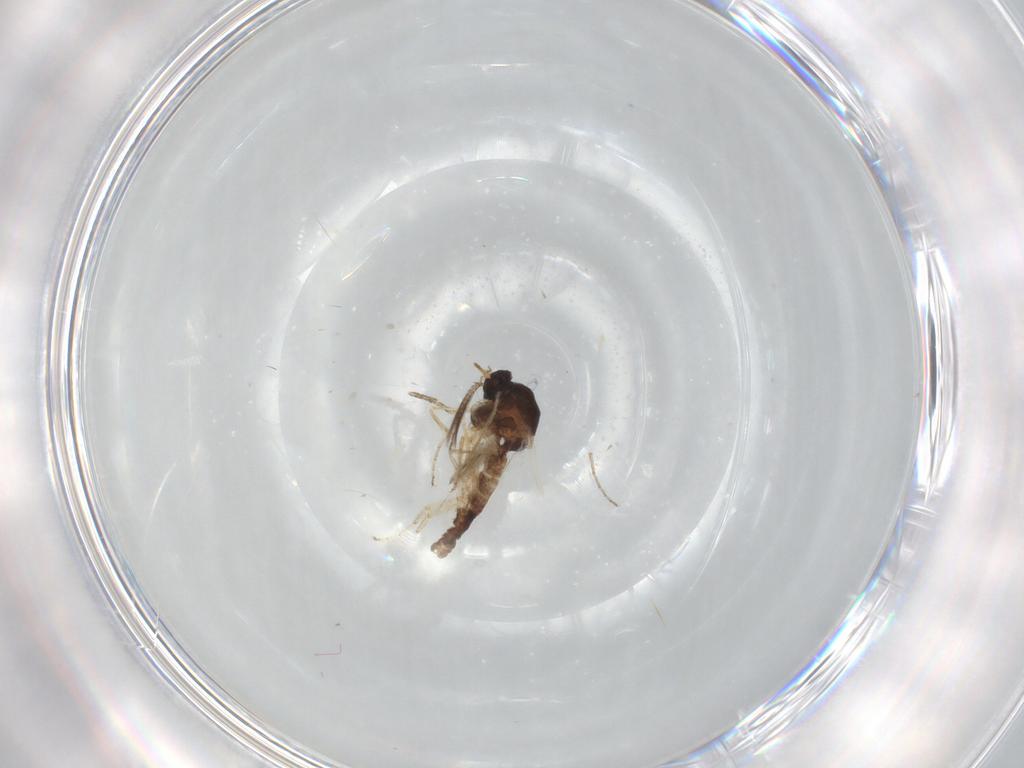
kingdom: Animalia
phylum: Arthropoda
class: Insecta
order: Diptera
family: Ceratopogonidae
